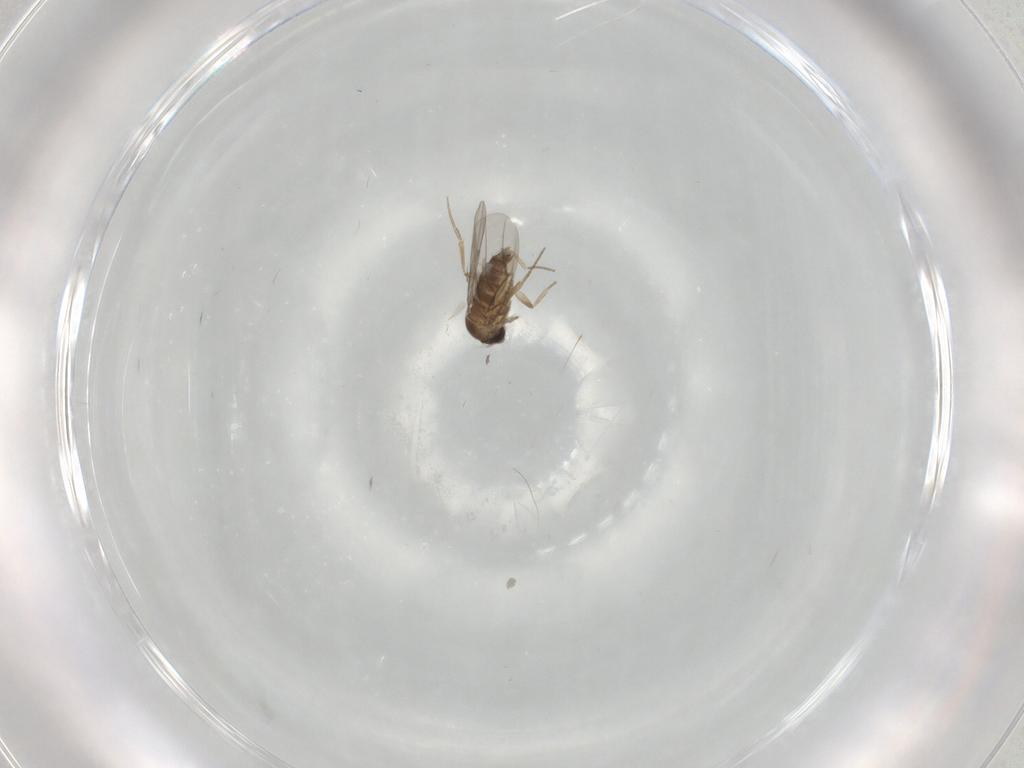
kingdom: Animalia
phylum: Arthropoda
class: Insecta
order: Diptera
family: Phoridae
